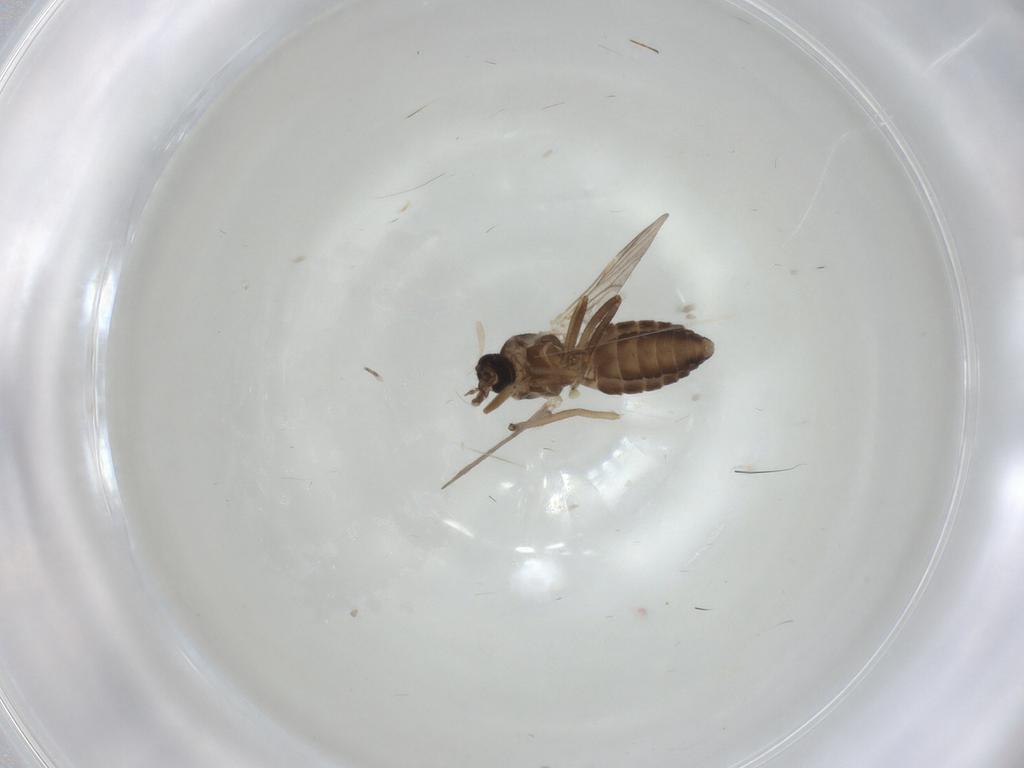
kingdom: Animalia
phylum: Arthropoda
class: Insecta
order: Diptera
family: Ceratopogonidae
